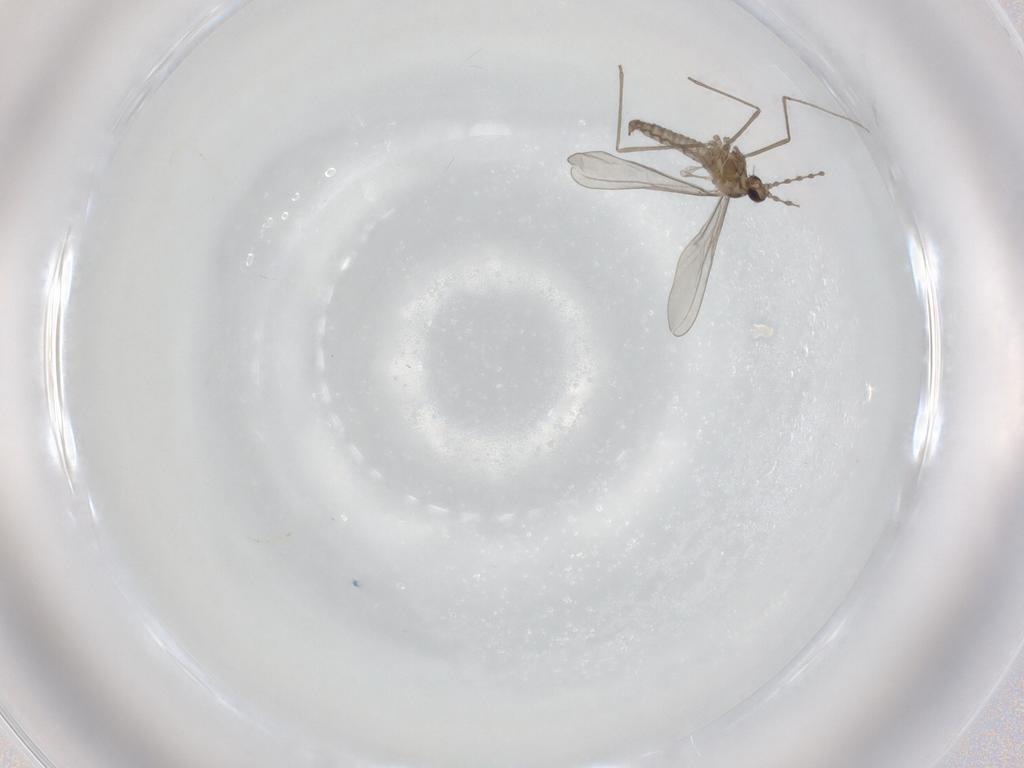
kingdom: Animalia
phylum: Arthropoda
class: Insecta
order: Diptera
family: Cecidomyiidae
